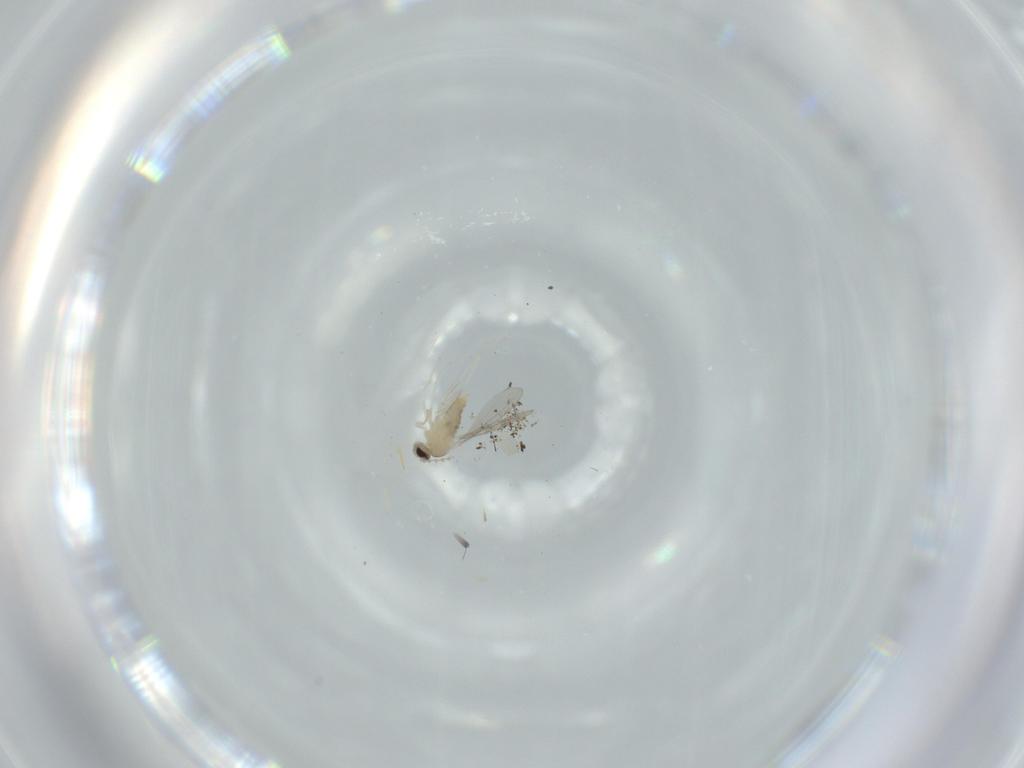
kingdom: Animalia
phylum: Arthropoda
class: Insecta
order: Diptera
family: Cecidomyiidae
